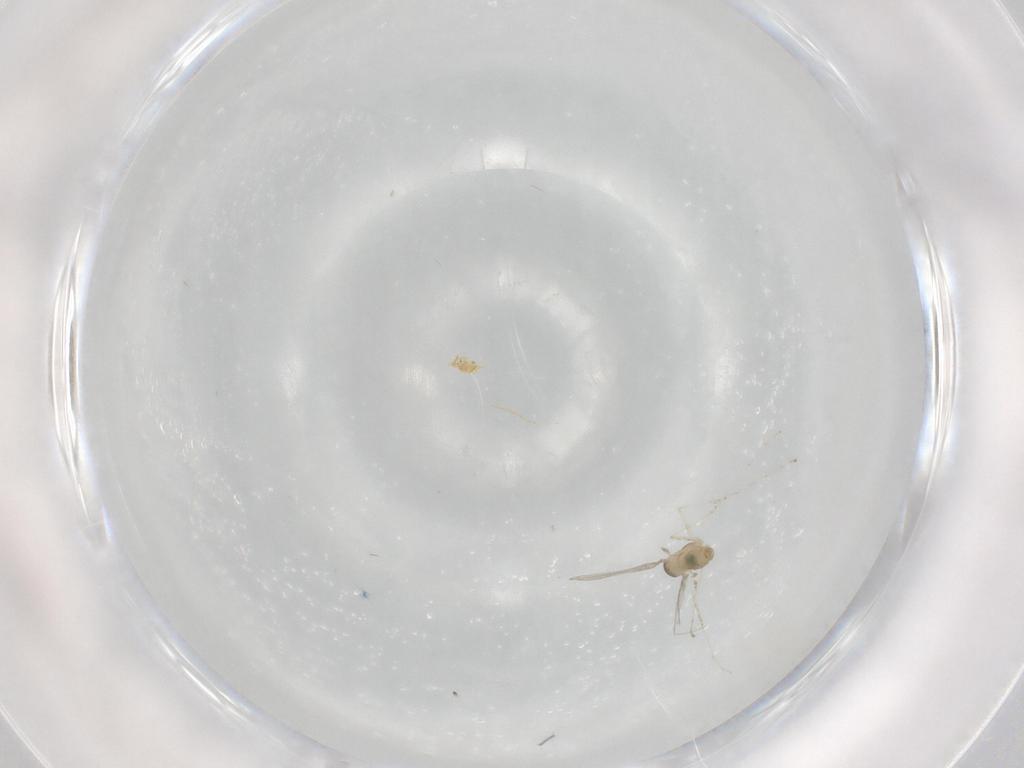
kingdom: Animalia
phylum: Arthropoda
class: Insecta
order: Diptera
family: Cecidomyiidae
